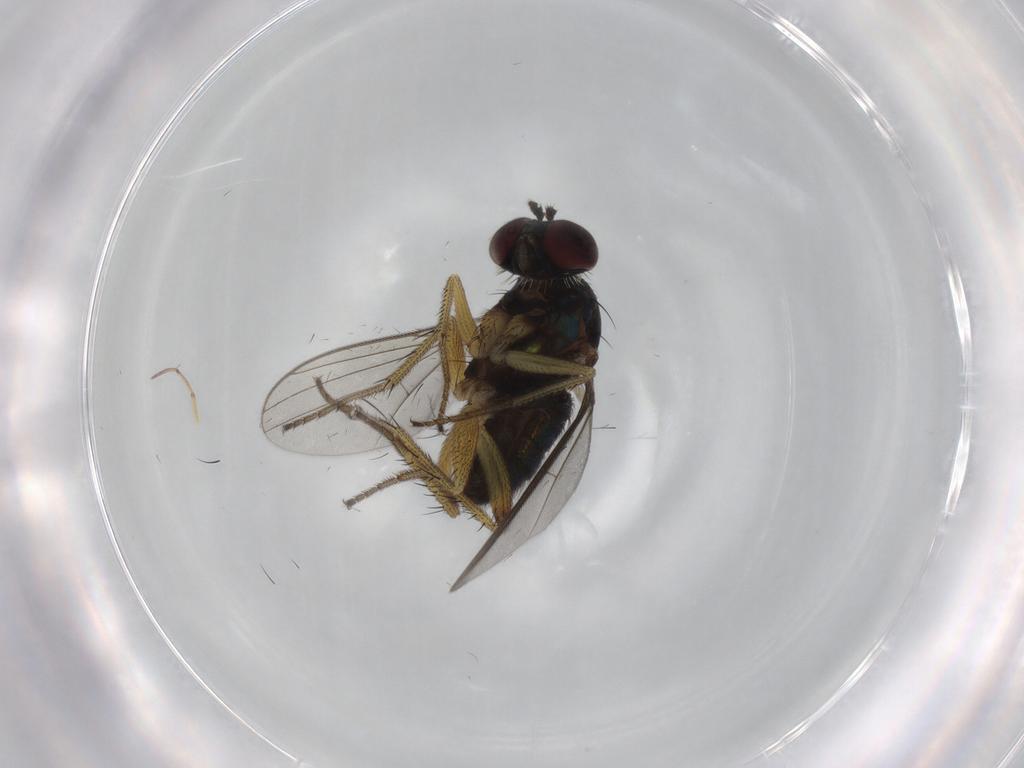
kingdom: Animalia
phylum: Arthropoda
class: Insecta
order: Diptera
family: Dolichopodidae
